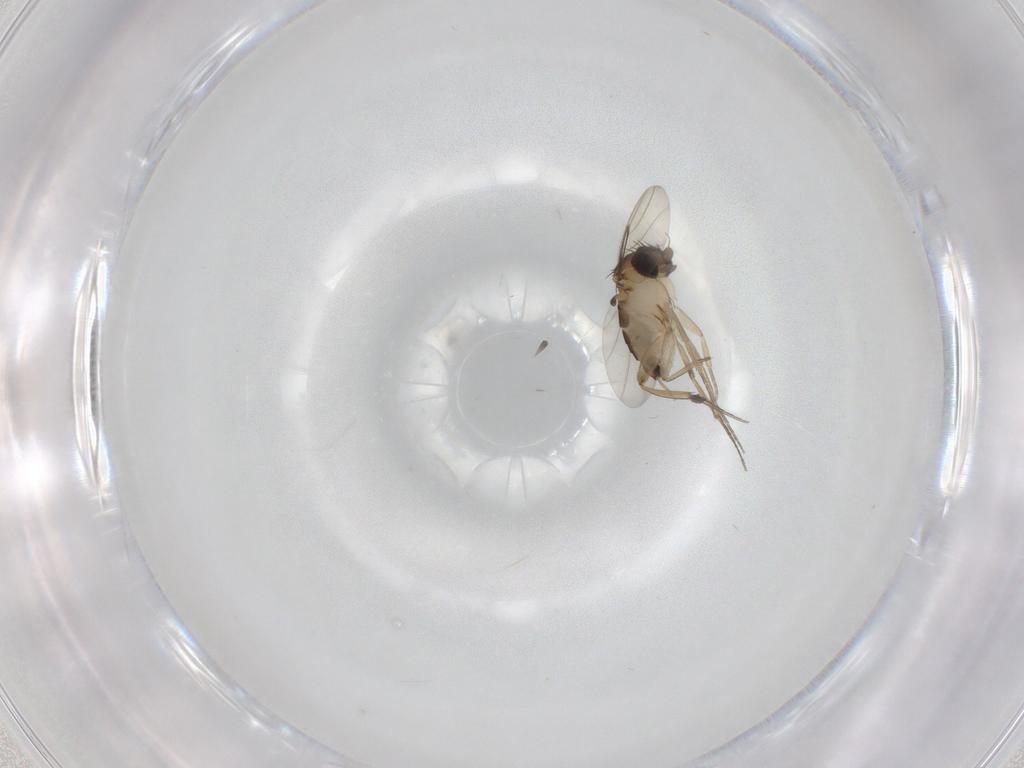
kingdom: Animalia
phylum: Arthropoda
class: Insecta
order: Diptera
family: Phoridae
